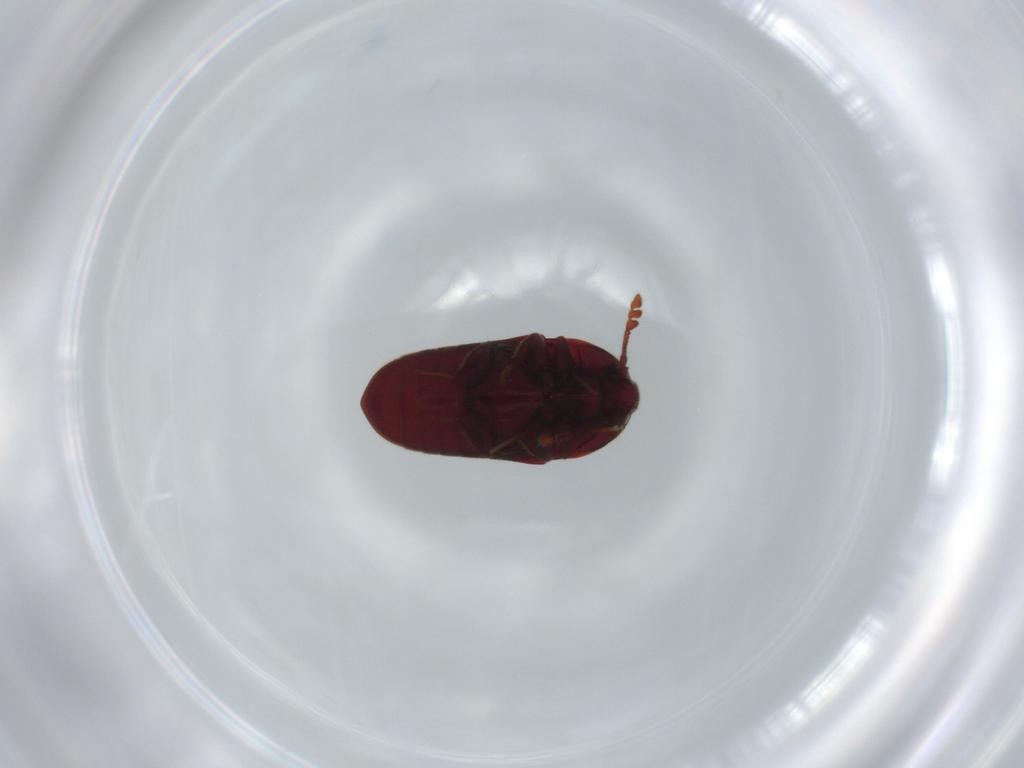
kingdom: Animalia
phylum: Arthropoda
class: Insecta
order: Coleoptera
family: Throscidae
